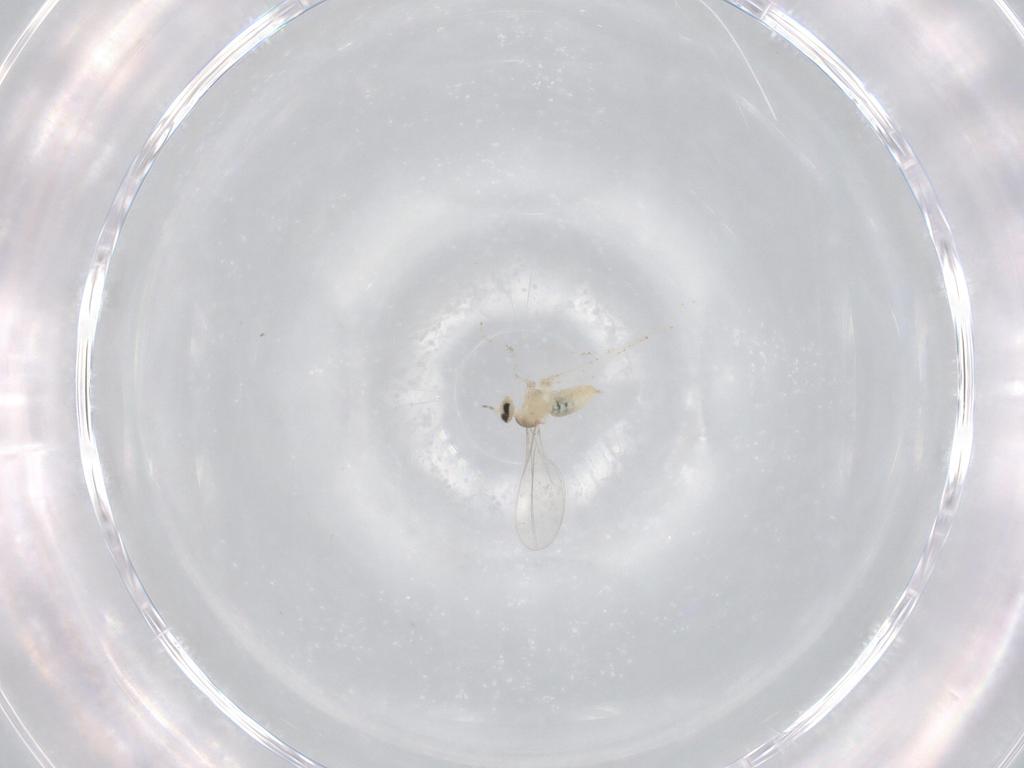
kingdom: Animalia
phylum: Arthropoda
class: Insecta
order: Diptera
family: Cecidomyiidae
